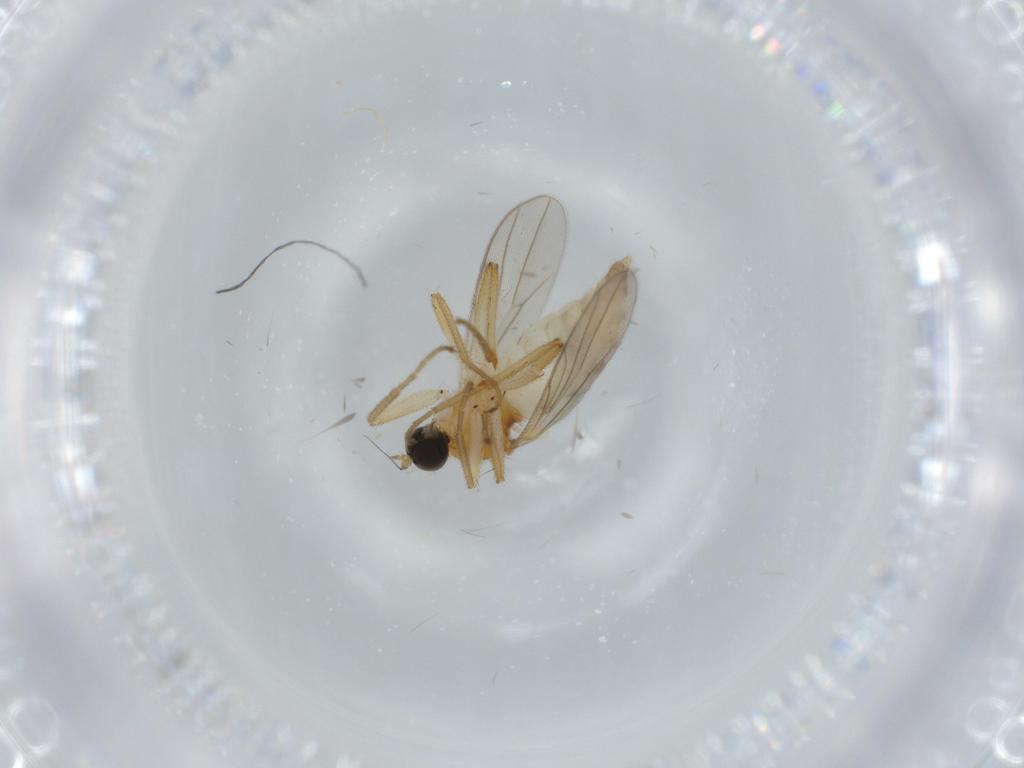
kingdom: Animalia
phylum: Arthropoda
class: Insecta
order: Diptera
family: Hybotidae
